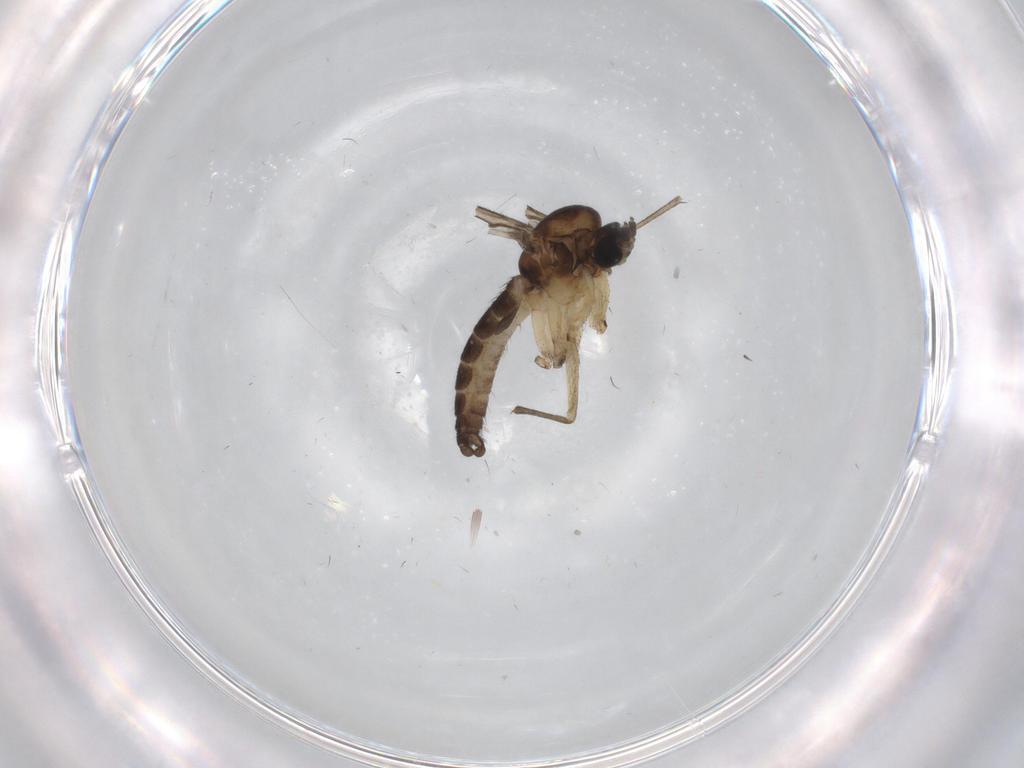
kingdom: Animalia
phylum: Arthropoda
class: Insecta
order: Diptera
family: Sciaridae
